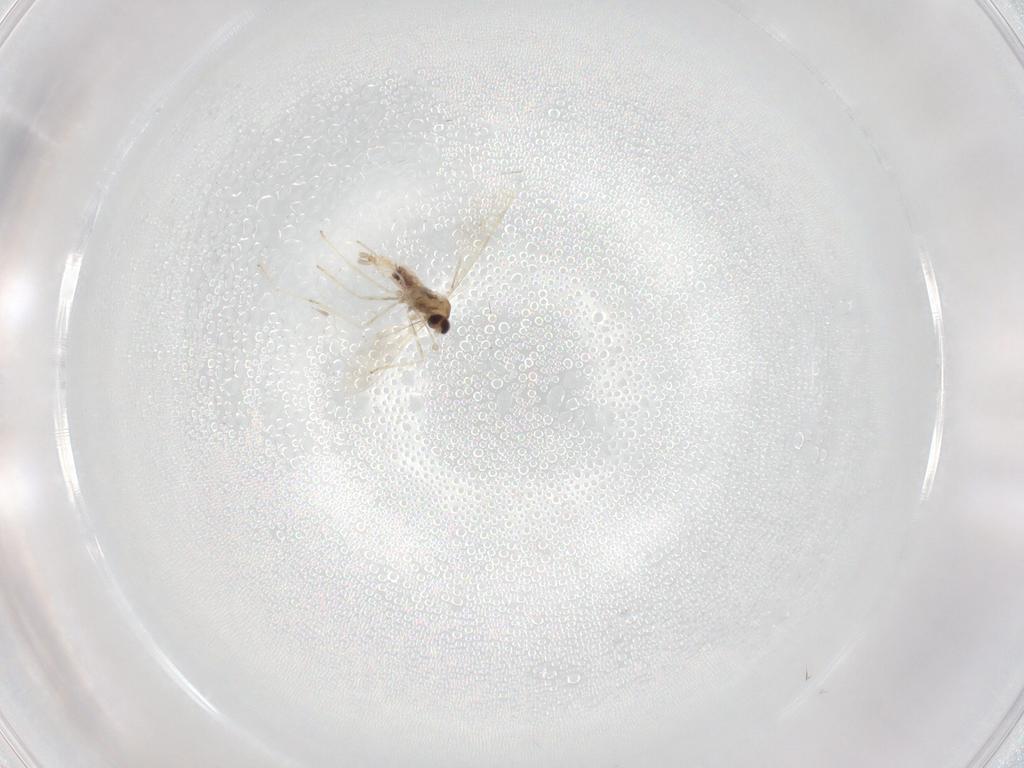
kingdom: Animalia
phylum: Arthropoda
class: Insecta
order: Diptera
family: Cecidomyiidae
